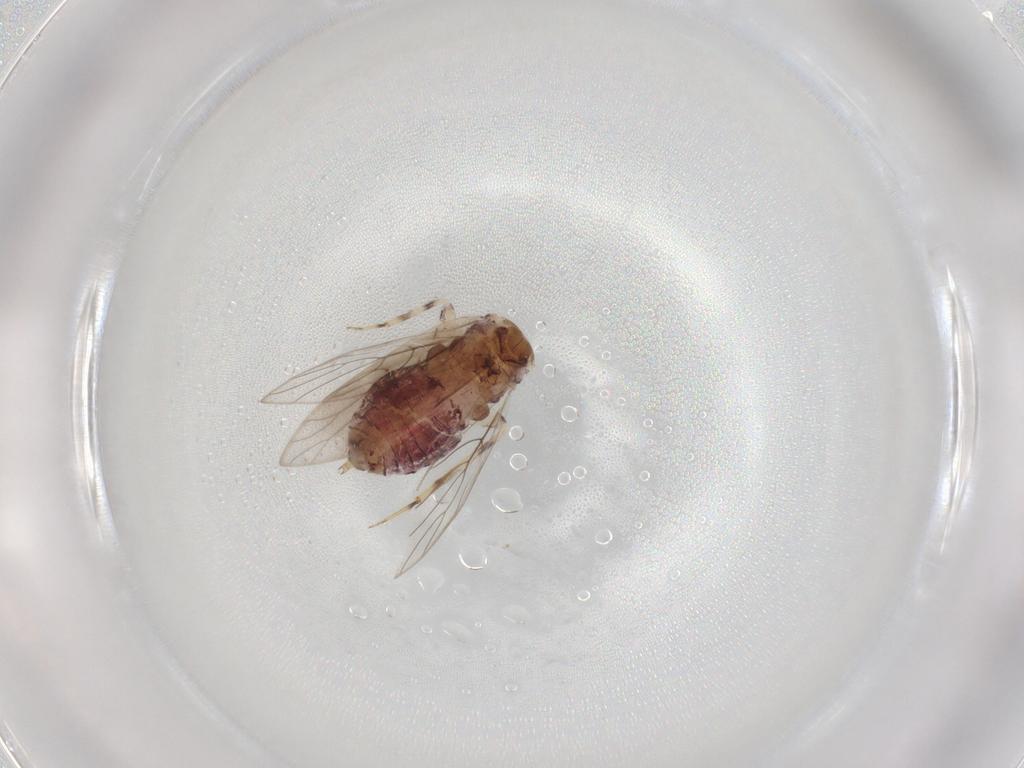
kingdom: Animalia
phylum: Arthropoda
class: Insecta
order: Psocodea
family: Lepidopsocidae
